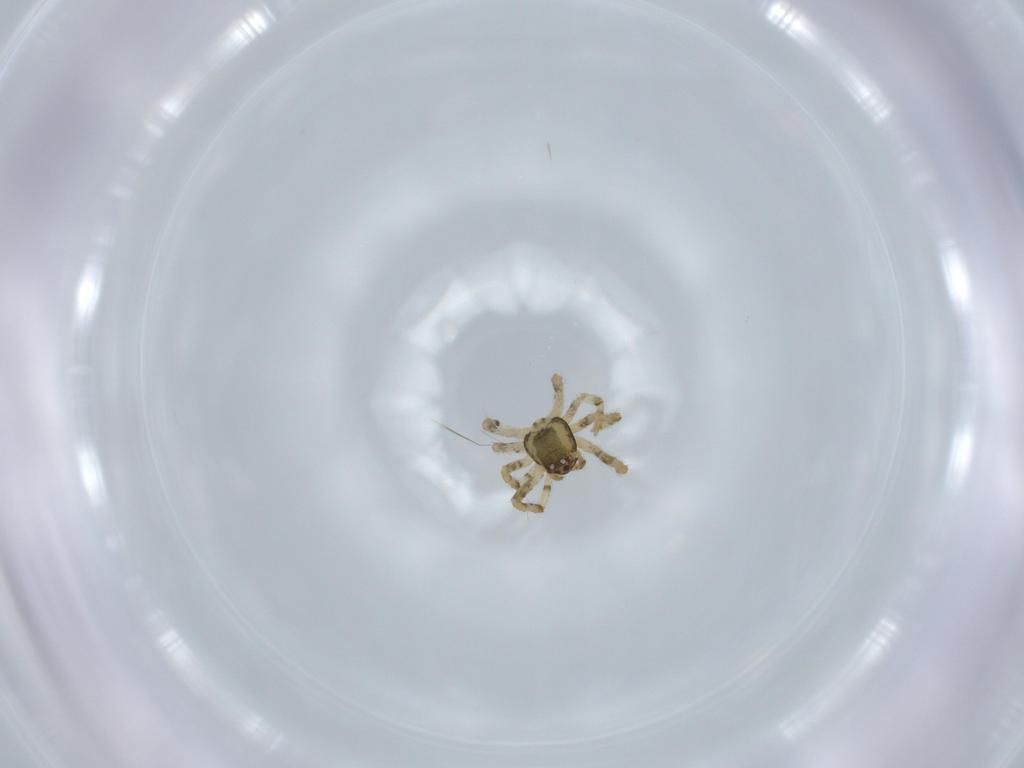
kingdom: Animalia
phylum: Arthropoda
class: Arachnida
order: Araneae
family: Theridiidae
